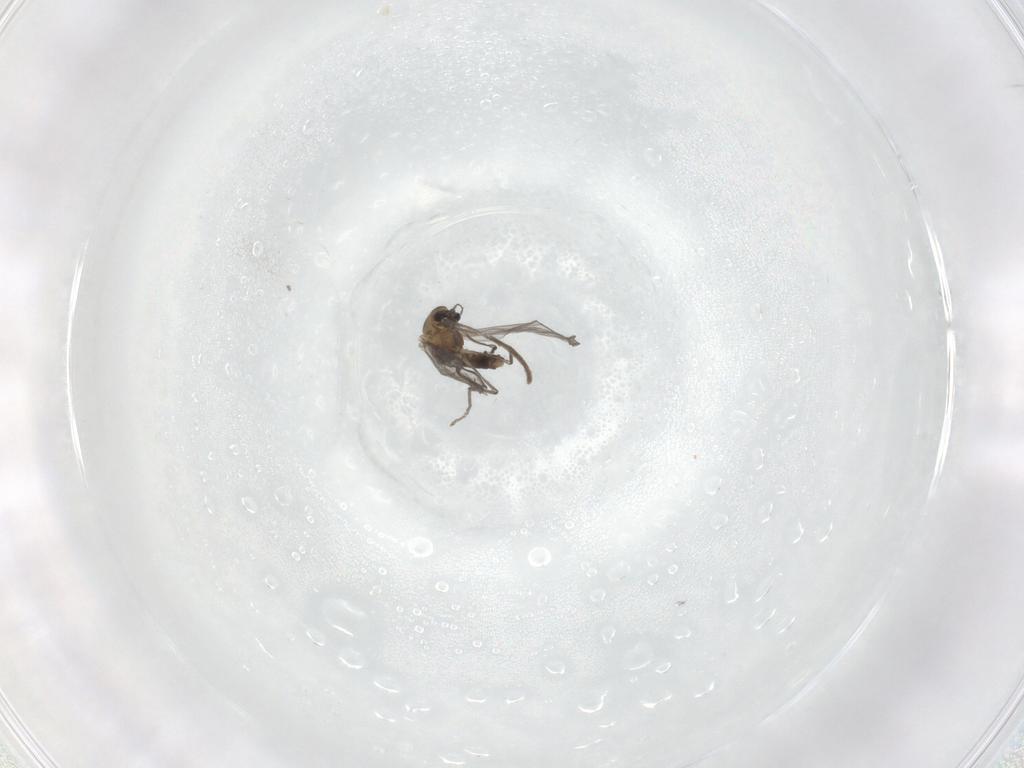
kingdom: Animalia
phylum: Arthropoda
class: Insecta
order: Diptera
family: Chironomidae
